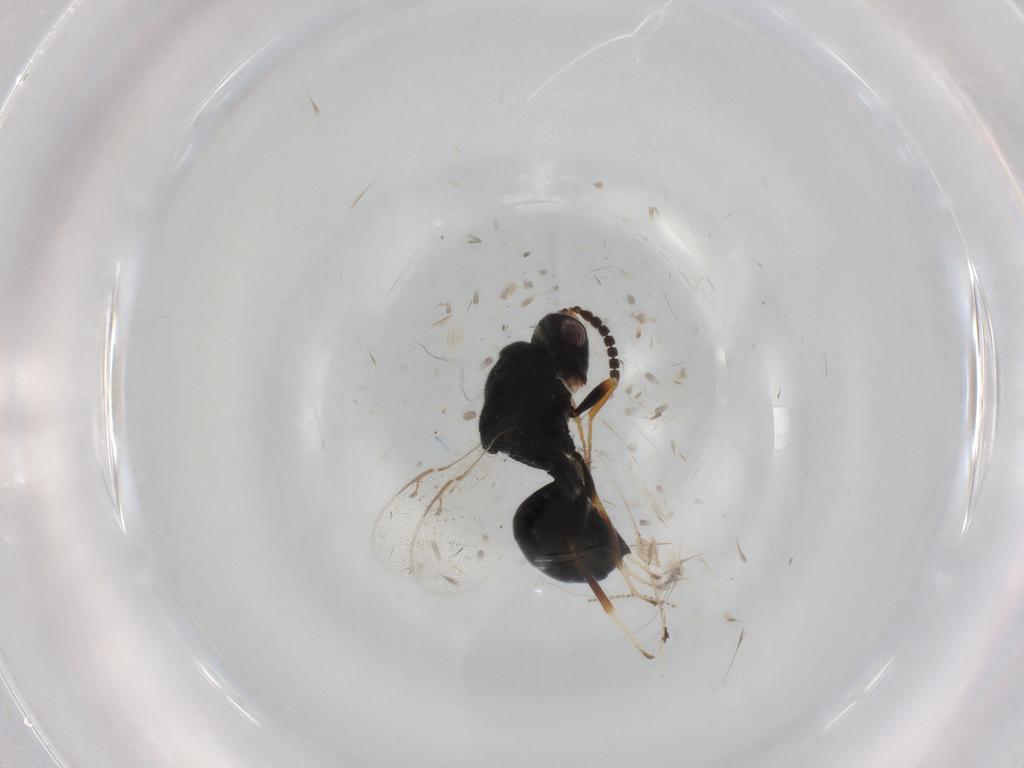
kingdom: Animalia
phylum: Arthropoda
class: Insecta
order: Hymenoptera
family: Eurytomidae
